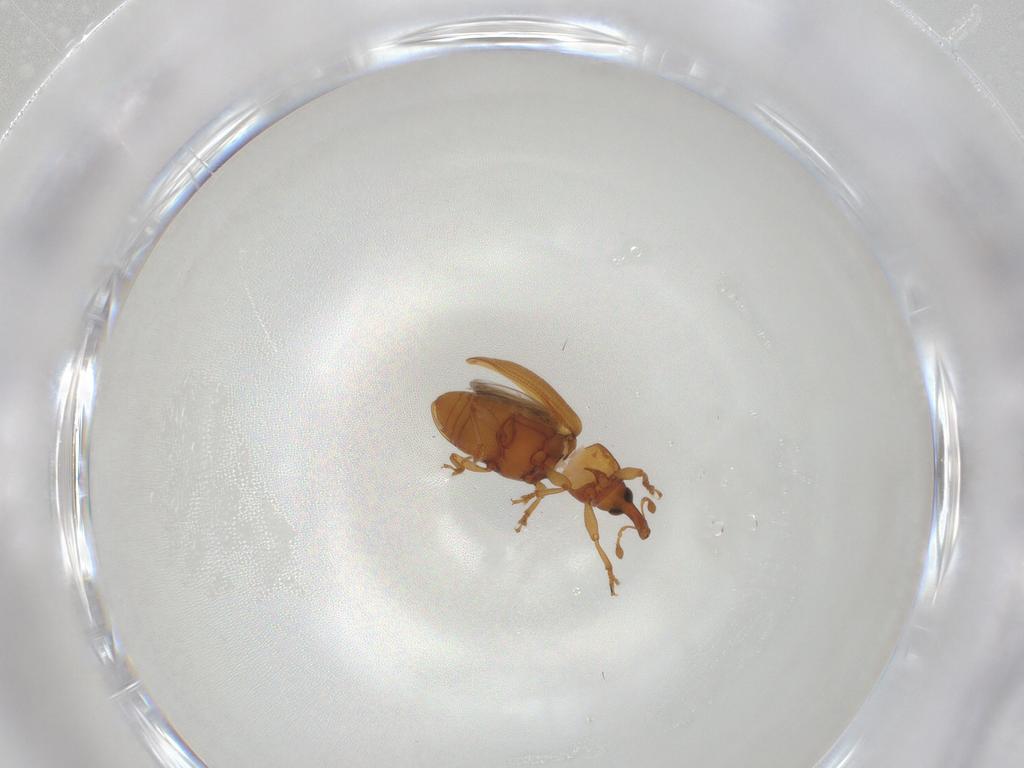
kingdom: Animalia
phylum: Arthropoda
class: Insecta
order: Coleoptera
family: Curculionidae
